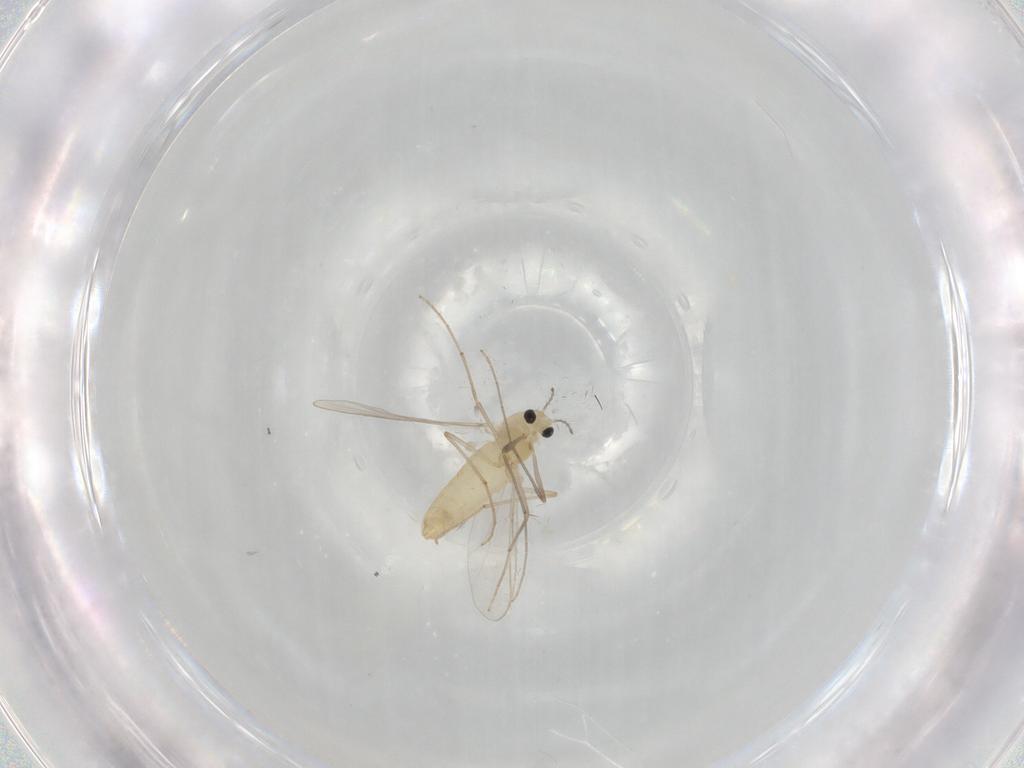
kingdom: Animalia
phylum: Arthropoda
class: Insecta
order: Diptera
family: Chironomidae
